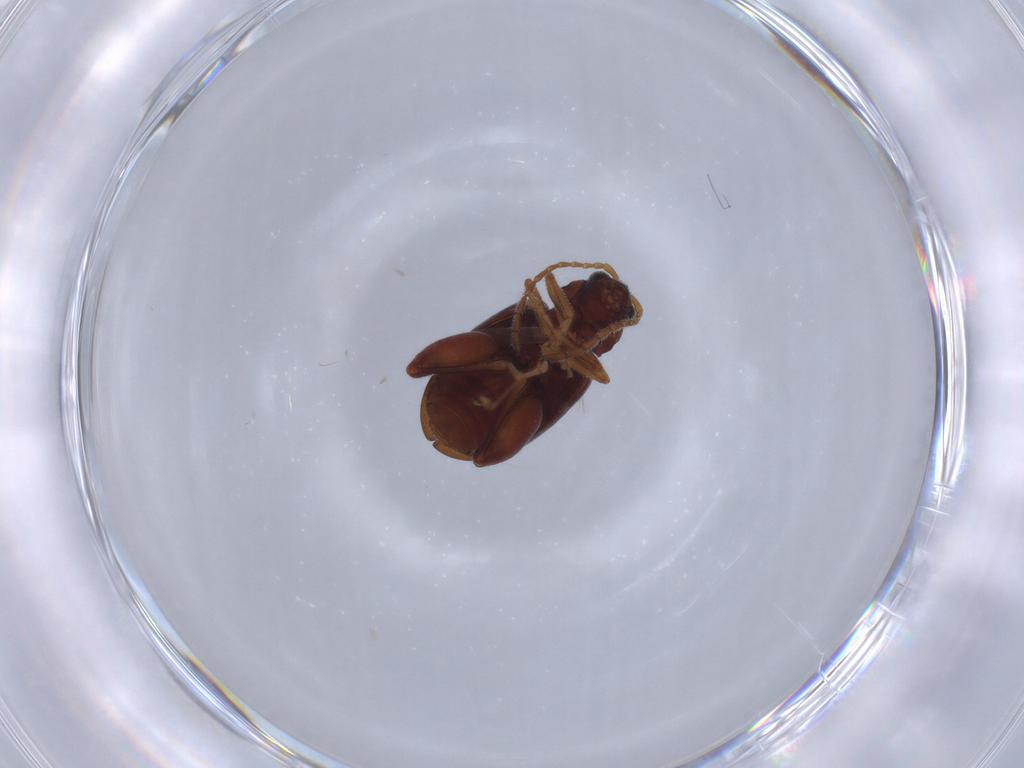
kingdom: Animalia
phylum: Arthropoda
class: Insecta
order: Coleoptera
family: Chrysomelidae
